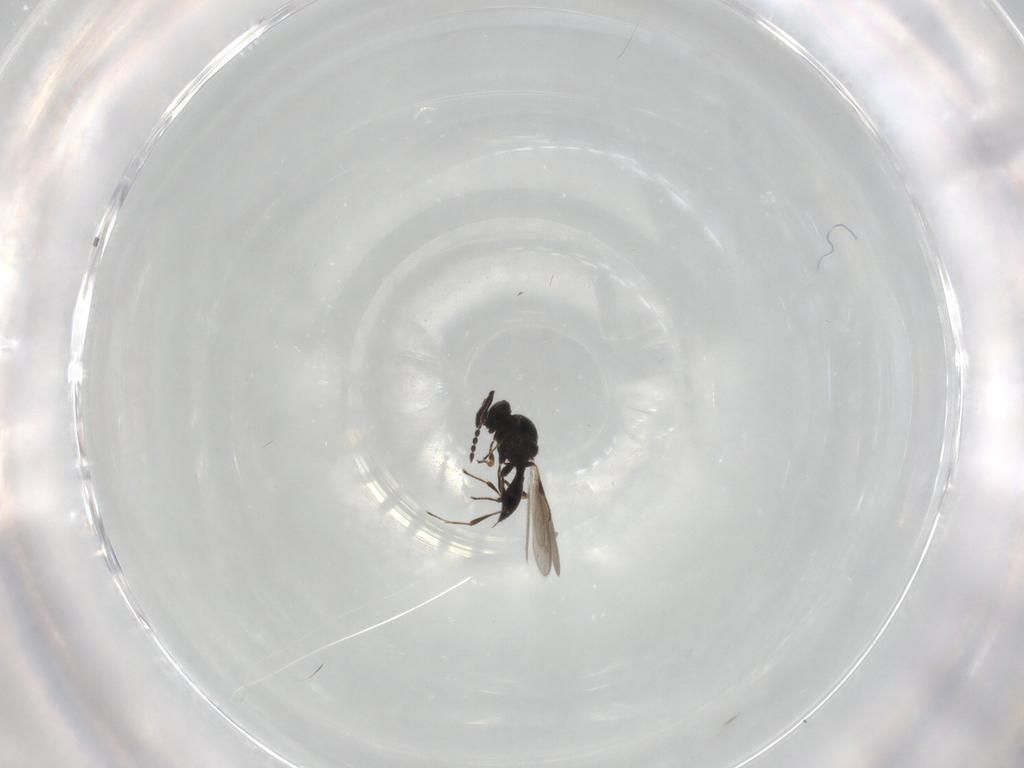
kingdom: Animalia
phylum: Arthropoda
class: Insecta
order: Hymenoptera
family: Platygastridae
